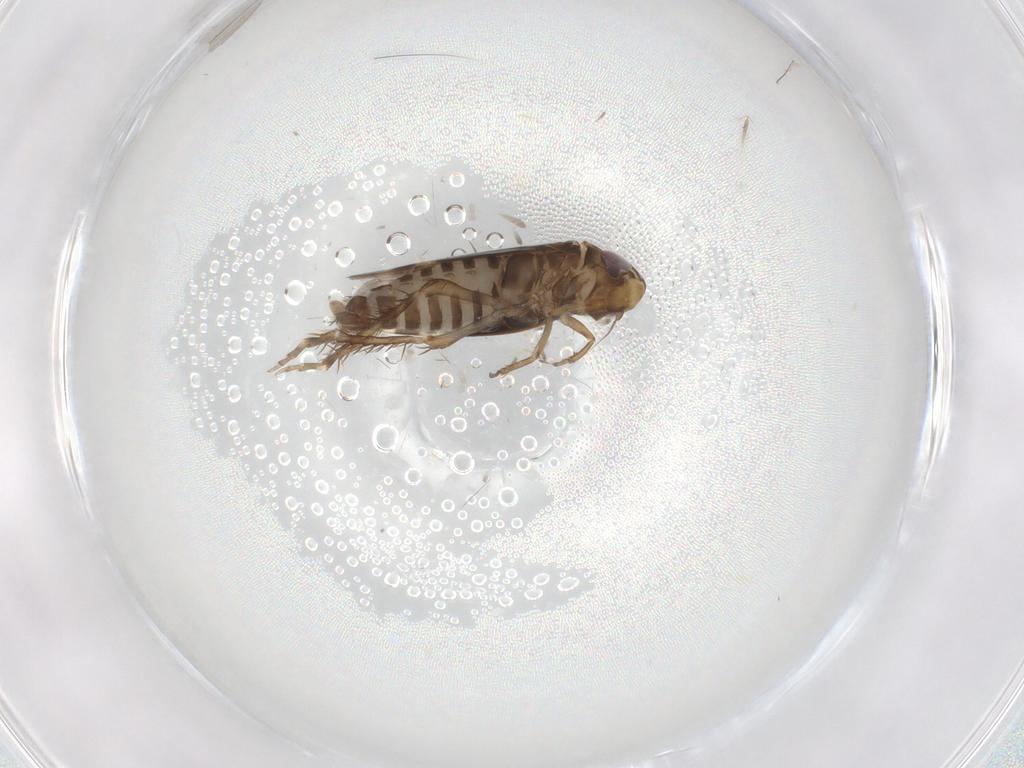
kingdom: Animalia
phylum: Arthropoda
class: Insecta
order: Hemiptera
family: Cicadellidae
